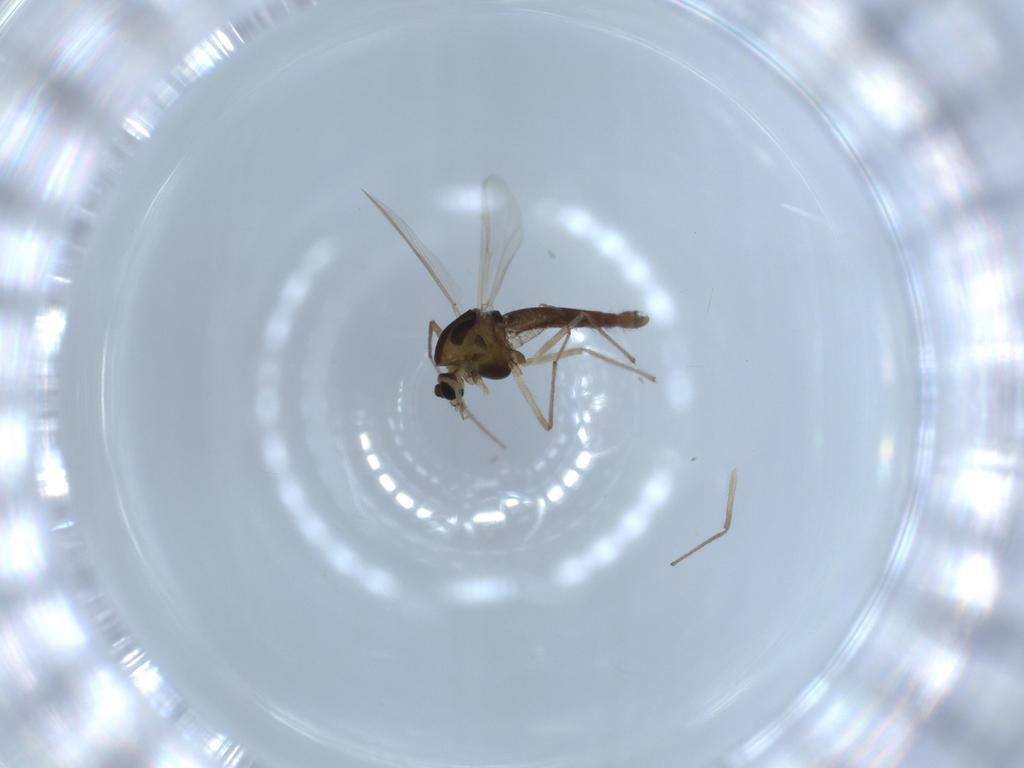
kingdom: Animalia
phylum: Arthropoda
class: Insecta
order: Diptera
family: Chironomidae
